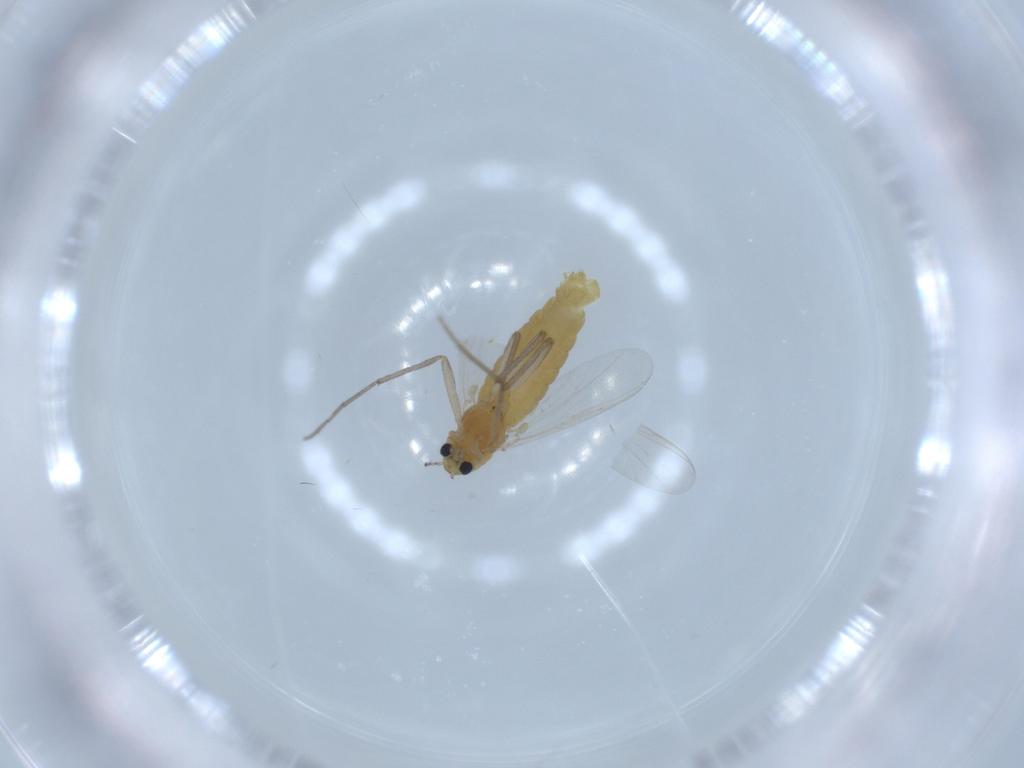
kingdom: Animalia
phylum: Arthropoda
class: Insecta
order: Diptera
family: Chironomidae
